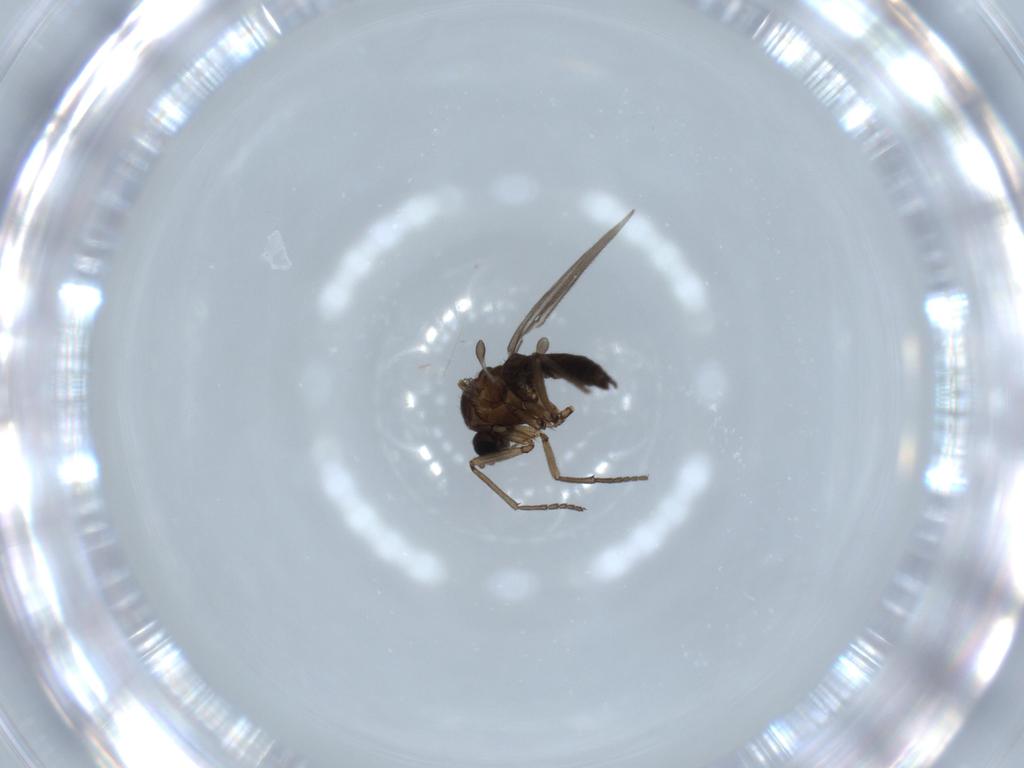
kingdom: Animalia
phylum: Arthropoda
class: Insecta
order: Diptera
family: Sciaridae
